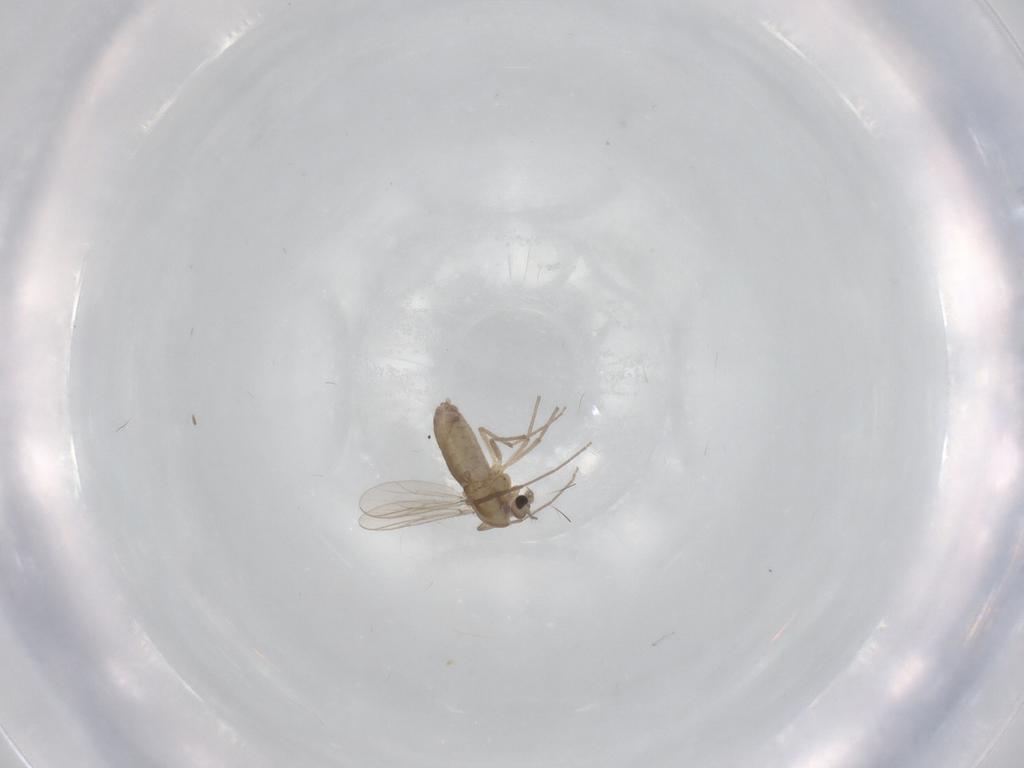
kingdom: Animalia
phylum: Arthropoda
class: Insecta
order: Diptera
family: Chironomidae
